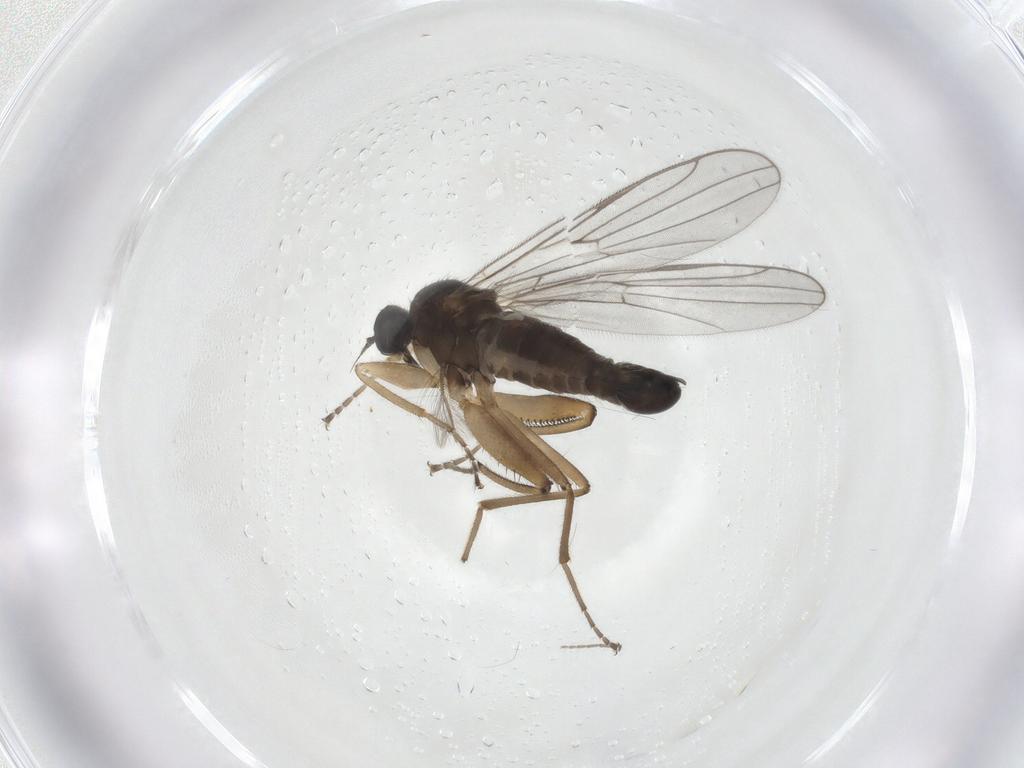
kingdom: Animalia
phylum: Arthropoda
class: Insecta
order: Diptera
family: Hybotidae
